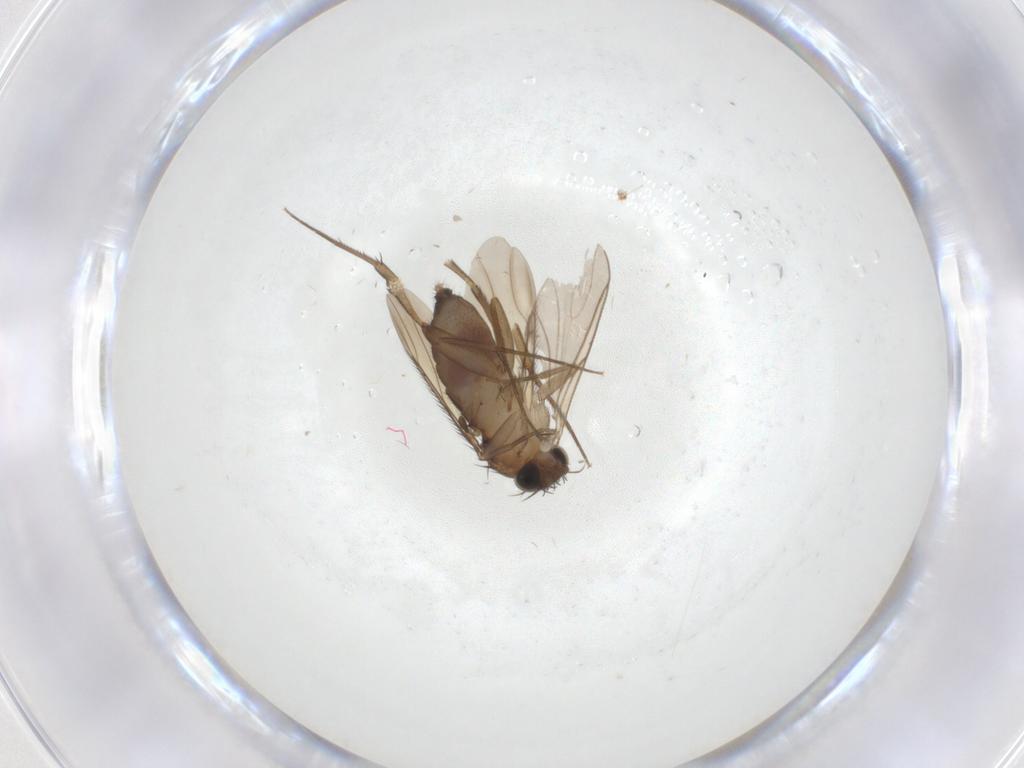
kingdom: Animalia
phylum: Arthropoda
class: Insecta
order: Diptera
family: Phoridae
